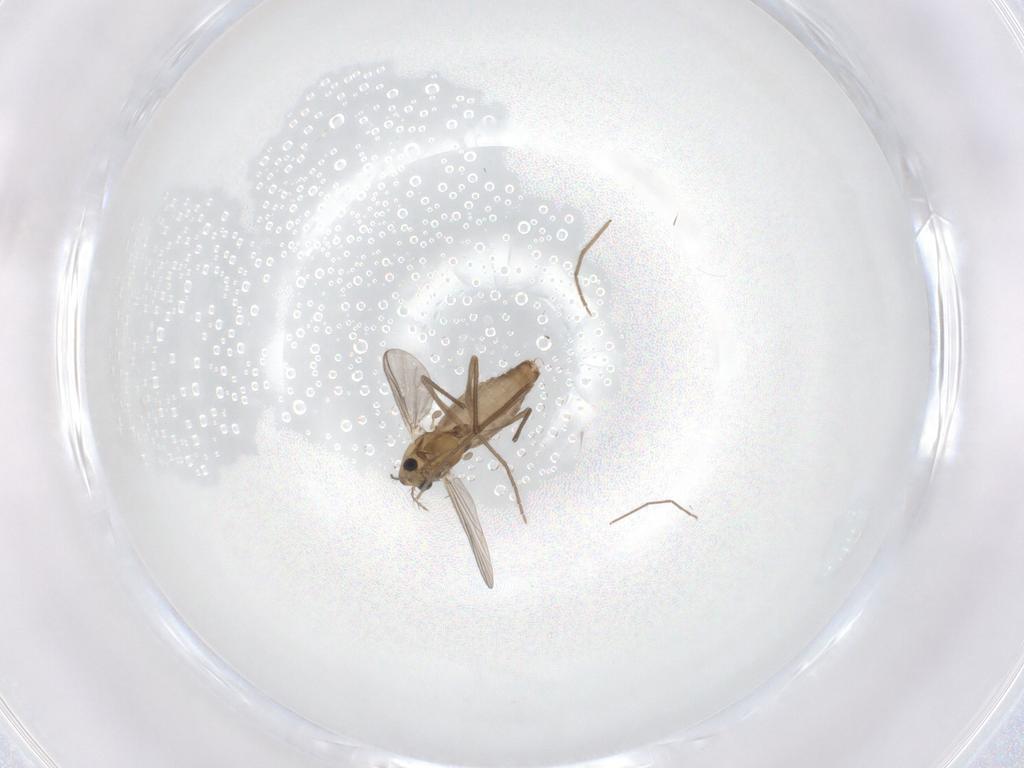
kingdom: Animalia
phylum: Arthropoda
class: Insecta
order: Diptera
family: Chironomidae
